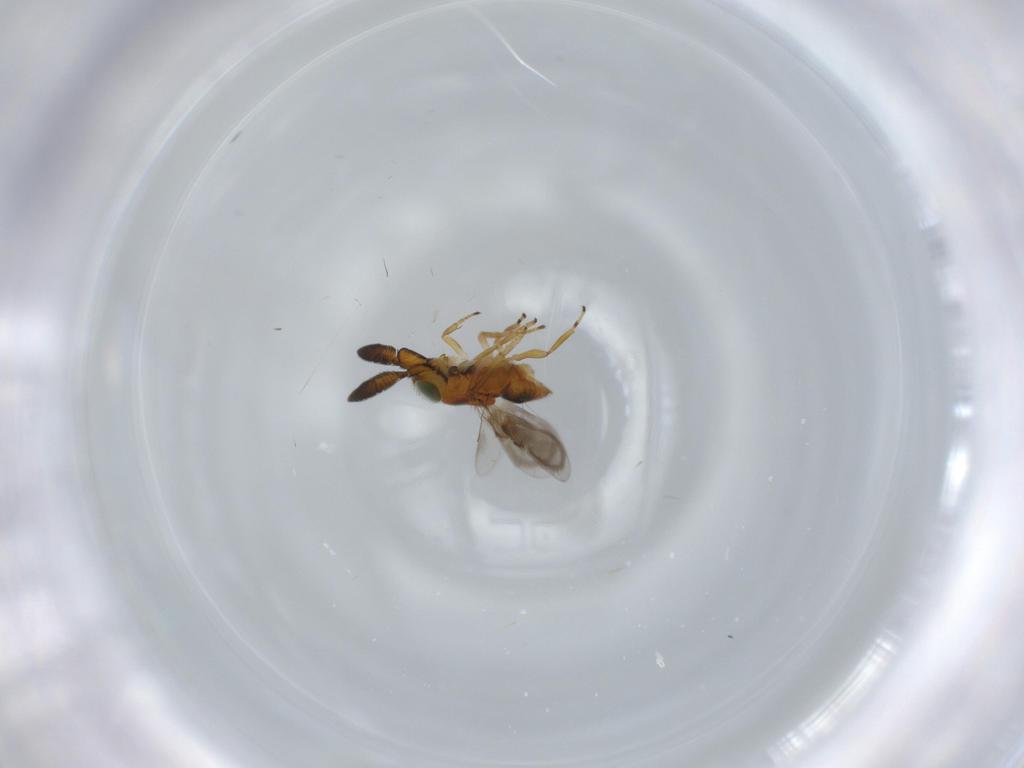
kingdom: Animalia
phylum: Arthropoda
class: Insecta
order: Hymenoptera
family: Encyrtidae
